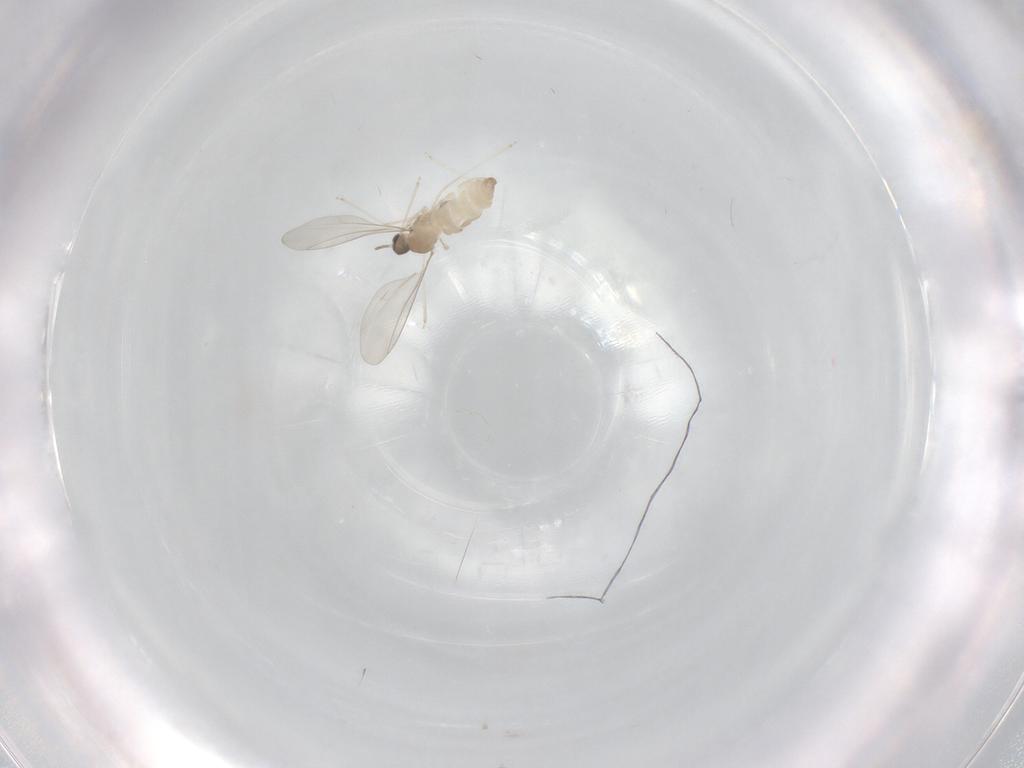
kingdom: Animalia
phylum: Arthropoda
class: Insecta
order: Diptera
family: Cecidomyiidae
